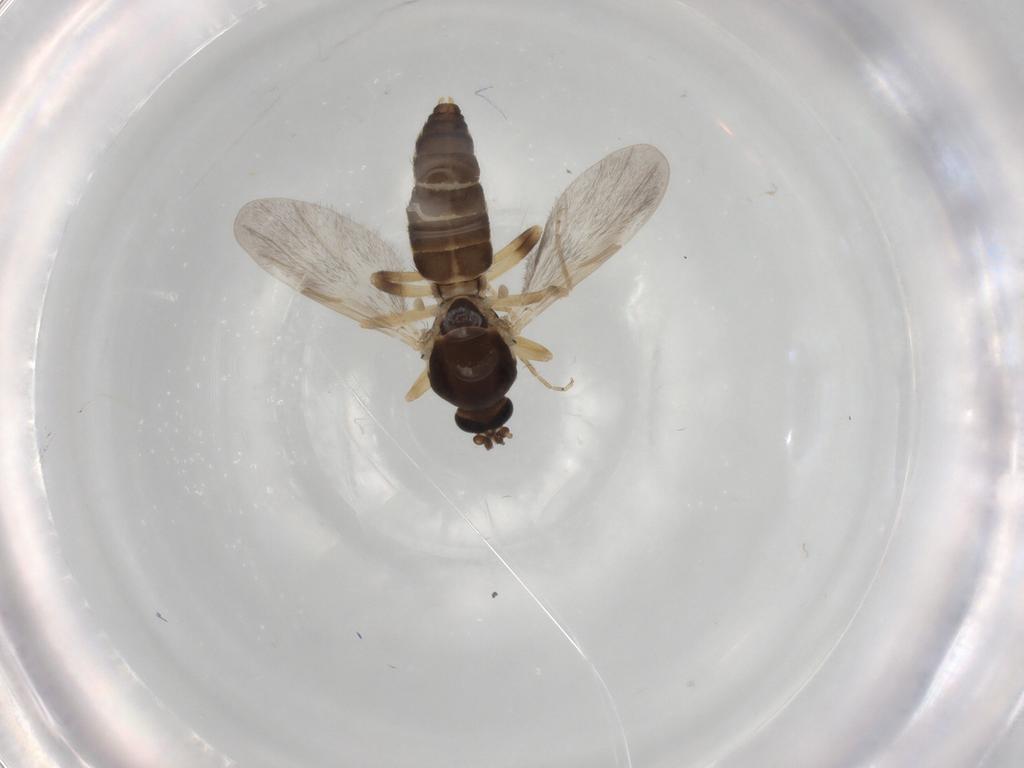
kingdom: Animalia
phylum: Arthropoda
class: Insecta
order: Diptera
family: Ceratopogonidae
